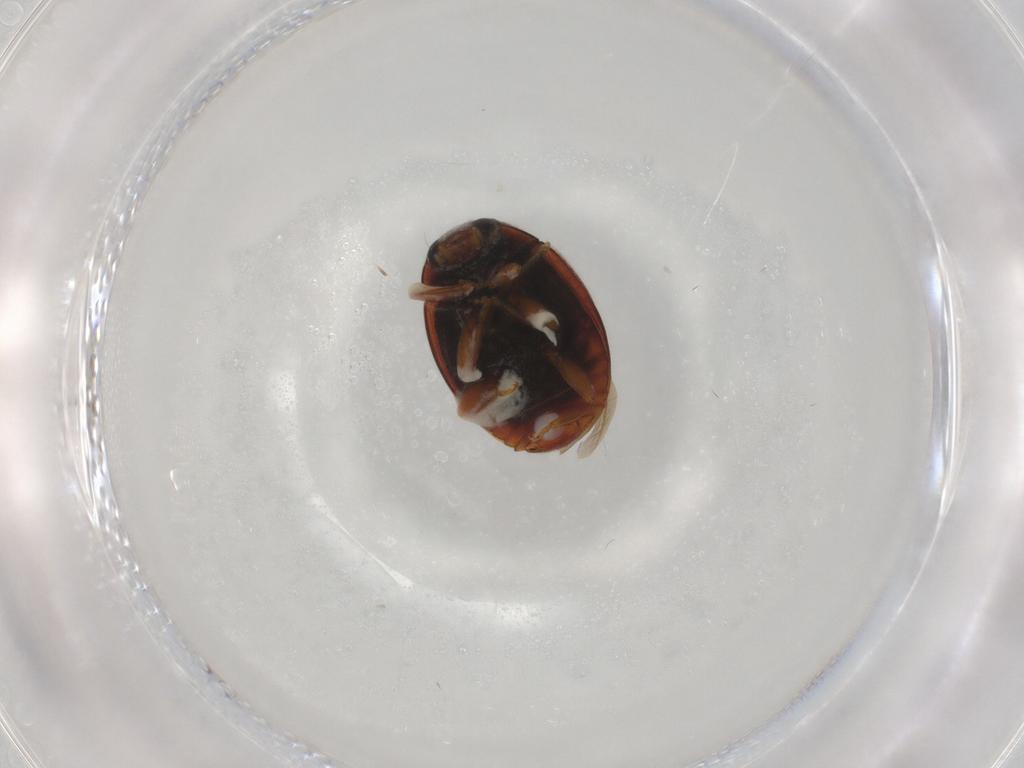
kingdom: Animalia
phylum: Arthropoda
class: Insecta
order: Coleoptera
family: Coccinellidae
